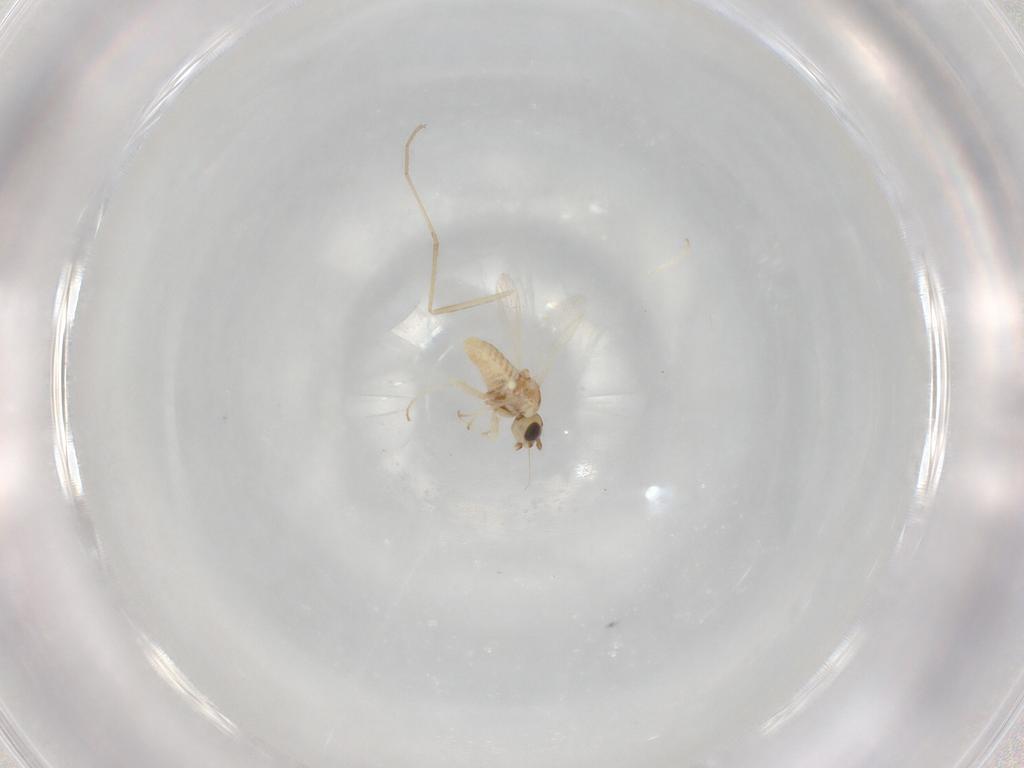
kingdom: Animalia
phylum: Arthropoda
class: Insecta
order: Diptera
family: Bombyliidae
